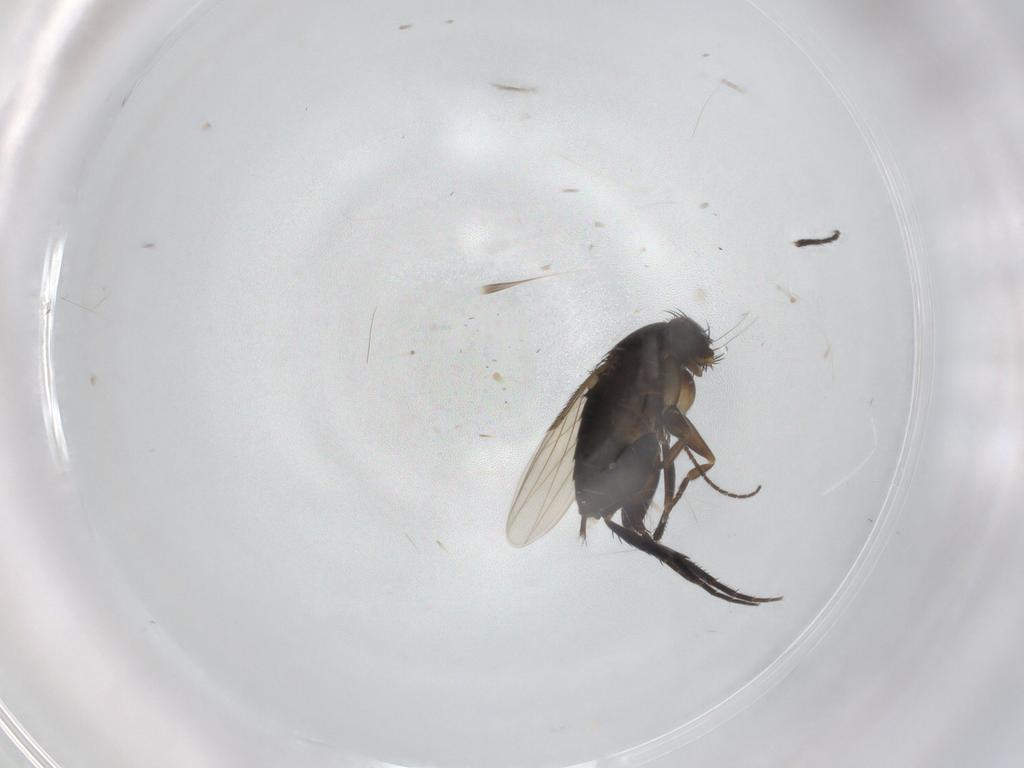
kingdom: Animalia
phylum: Arthropoda
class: Insecta
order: Diptera
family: Phoridae
